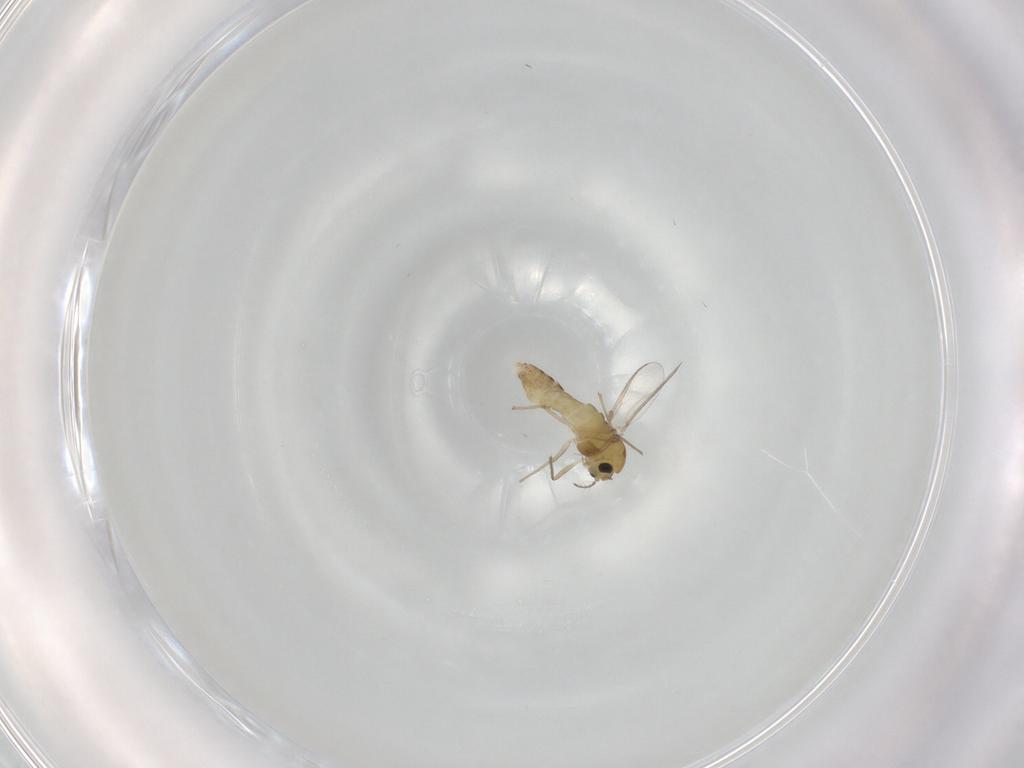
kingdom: Animalia
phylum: Arthropoda
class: Insecta
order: Diptera
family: Chironomidae
